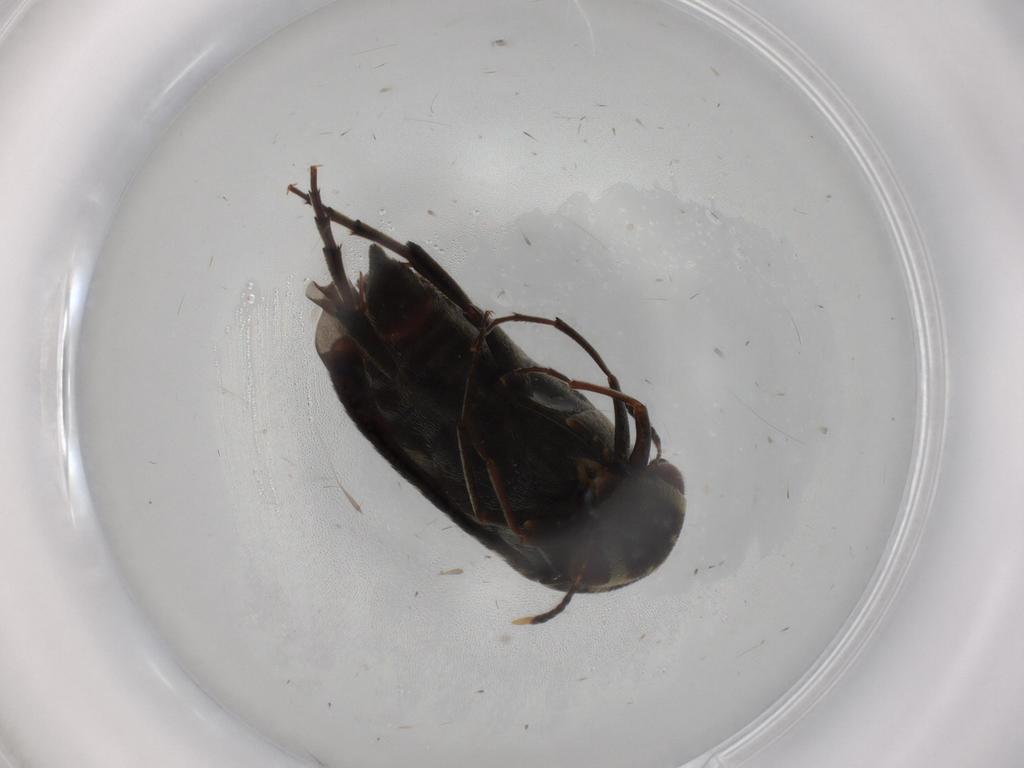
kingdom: Animalia
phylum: Arthropoda
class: Insecta
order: Coleoptera
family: Mordellidae
